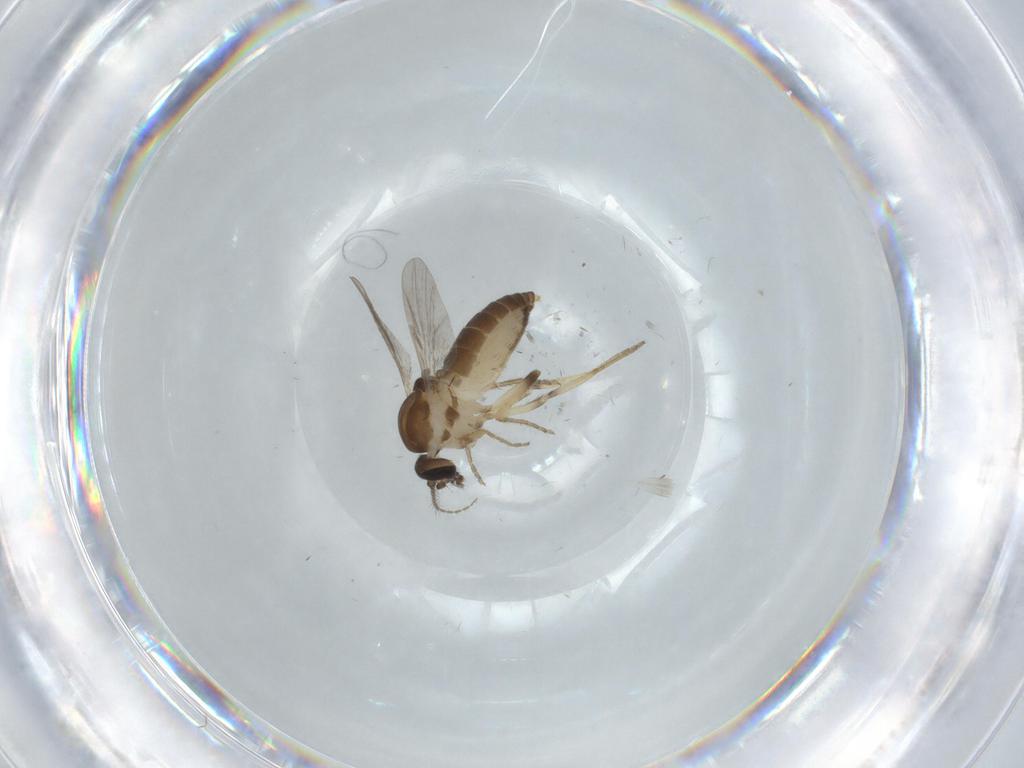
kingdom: Animalia
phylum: Arthropoda
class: Insecta
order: Diptera
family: Ceratopogonidae
